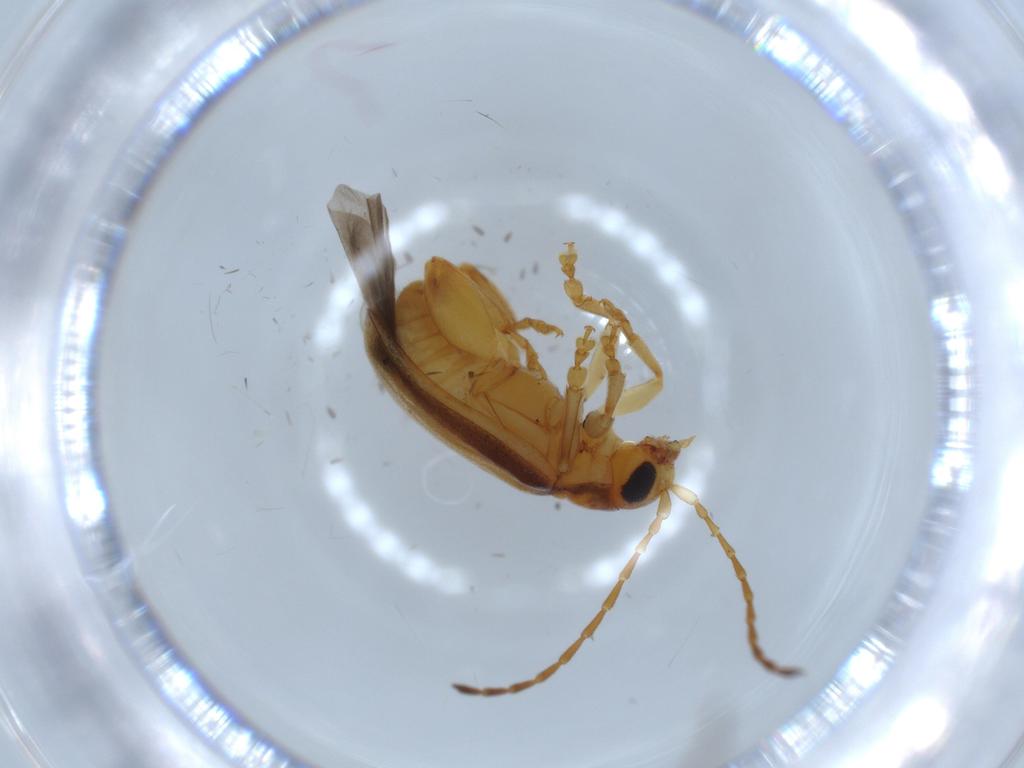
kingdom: Animalia
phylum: Arthropoda
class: Insecta
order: Coleoptera
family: Chrysomelidae
